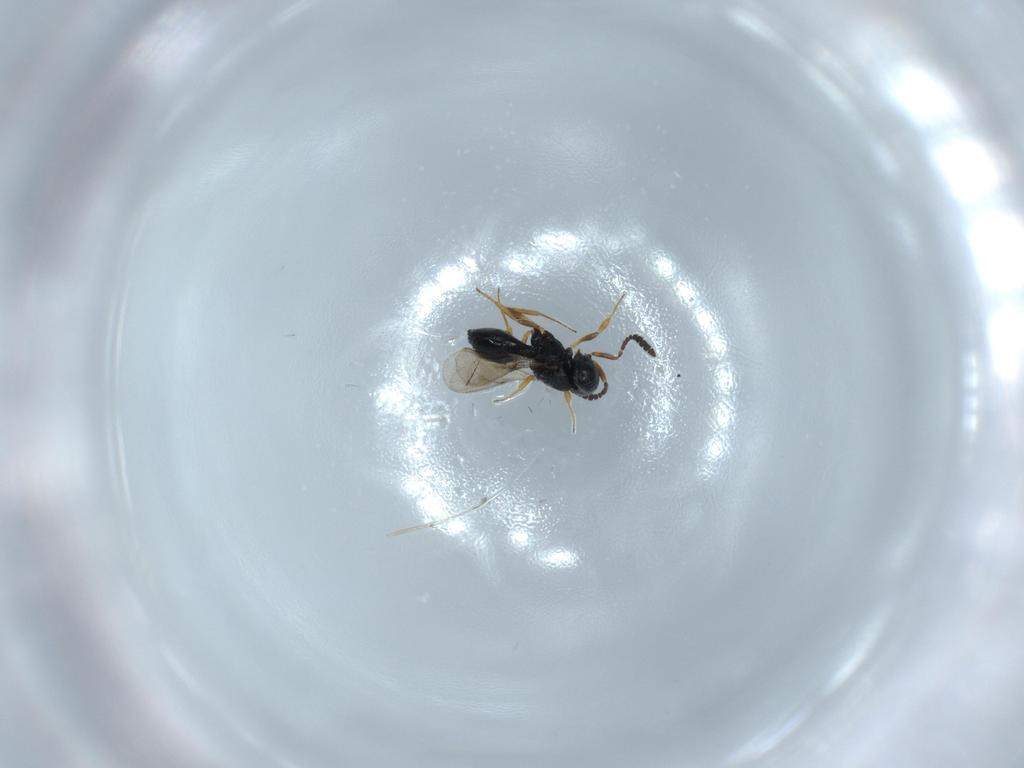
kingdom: Animalia
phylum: Arthropoda
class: Insecta
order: Hymenoptera
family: Scelionidae
